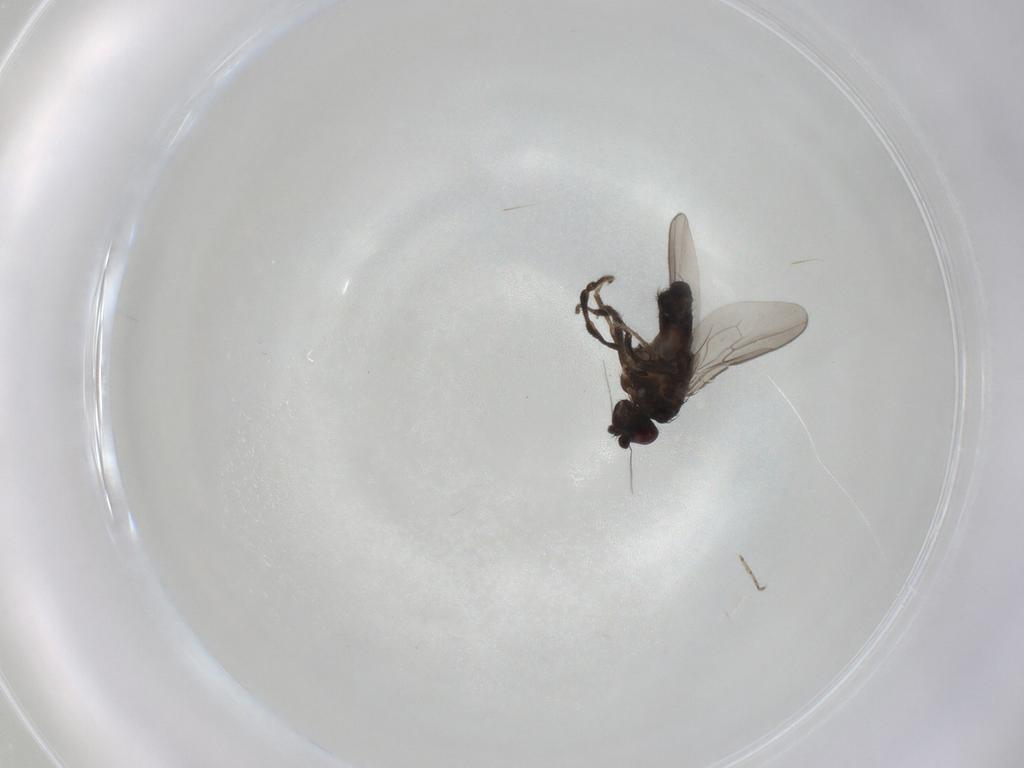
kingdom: Animalia
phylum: Arthropoda
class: Insecta
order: Diptera
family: Sphaeroceridae
